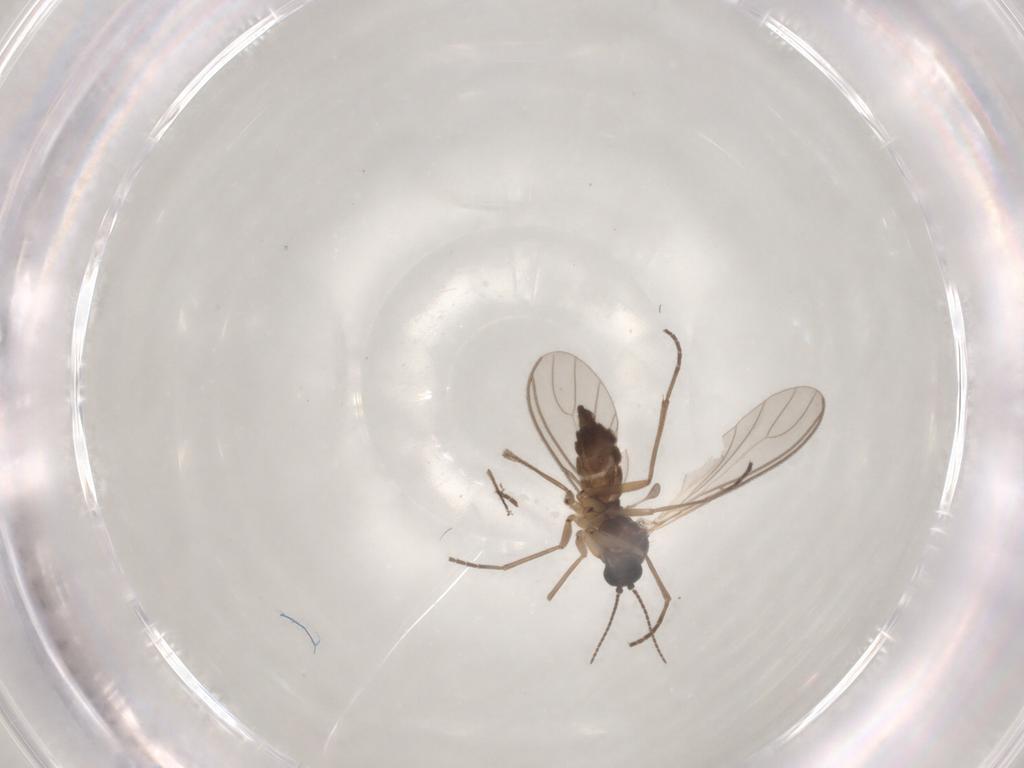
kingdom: Animalia
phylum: Arthropoda
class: Insecta
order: Diptera
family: Sciaridae
